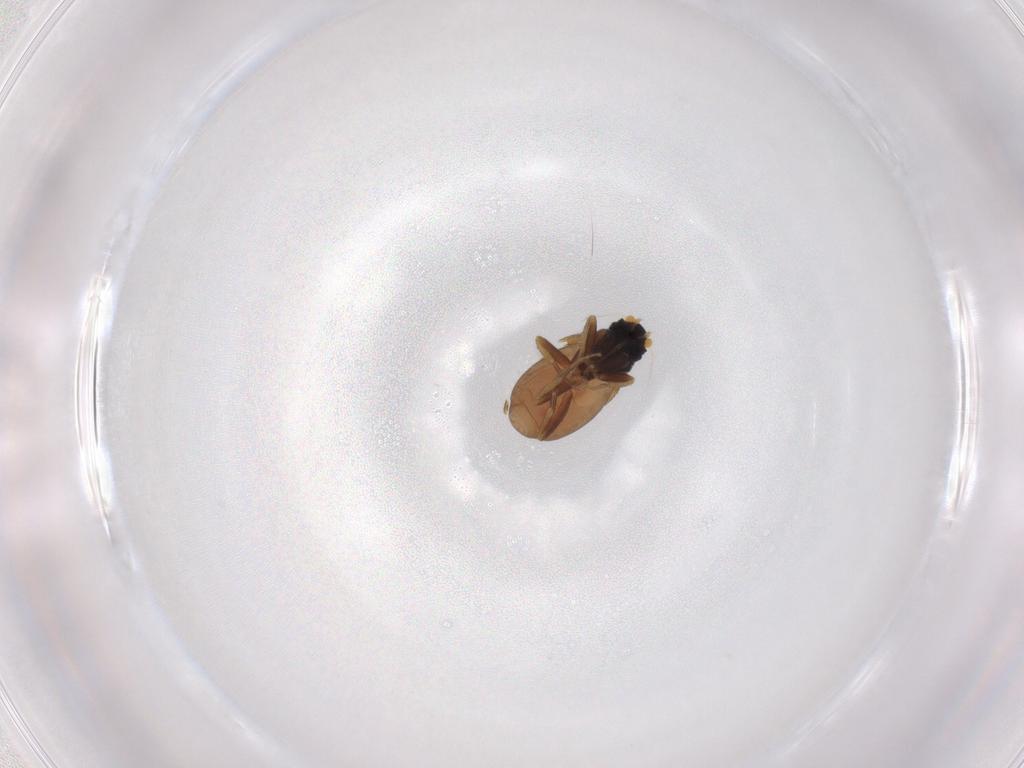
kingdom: Animalia
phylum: Arthropoda
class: Insecta
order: Diptera
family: Phoridae
